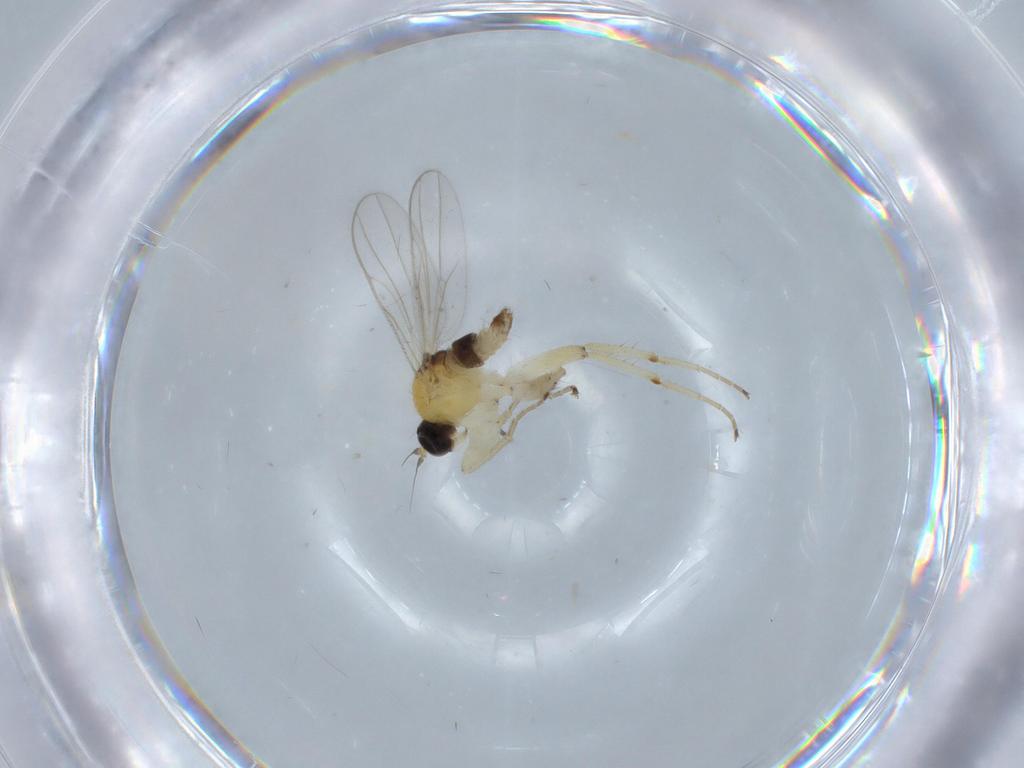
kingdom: Animalia
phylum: Arthropoda
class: Insecta
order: Diptera
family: Hybotidae
